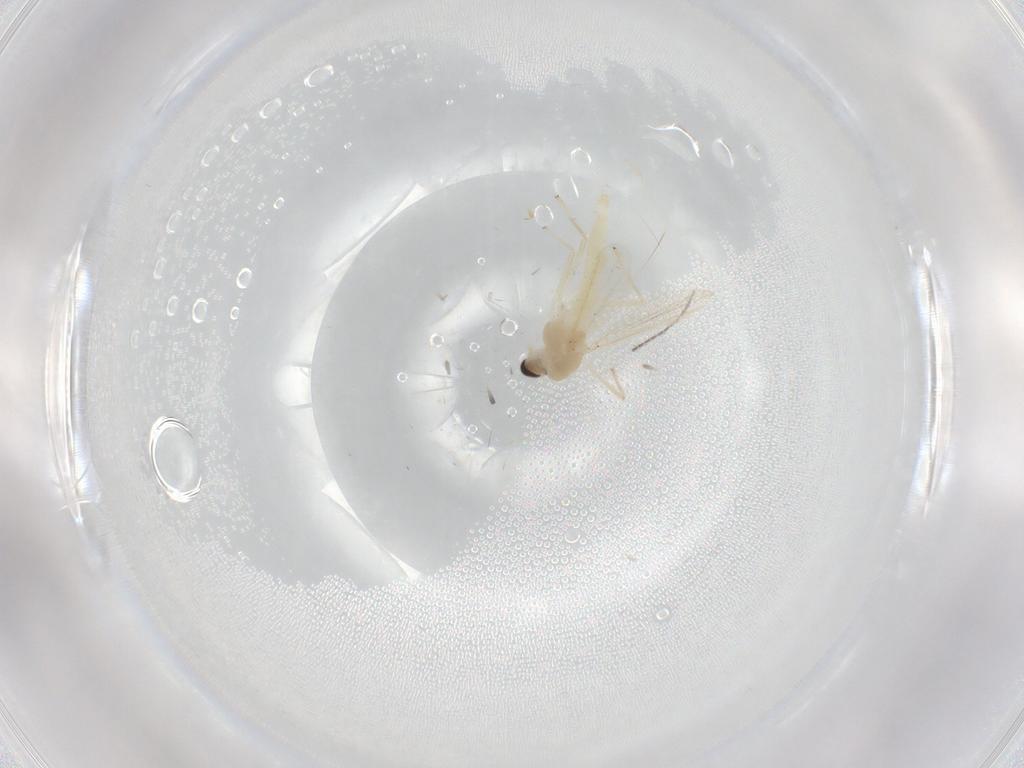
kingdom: Animalia
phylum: Arthropoda
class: Insecta
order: Diptera
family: Chironomidae
